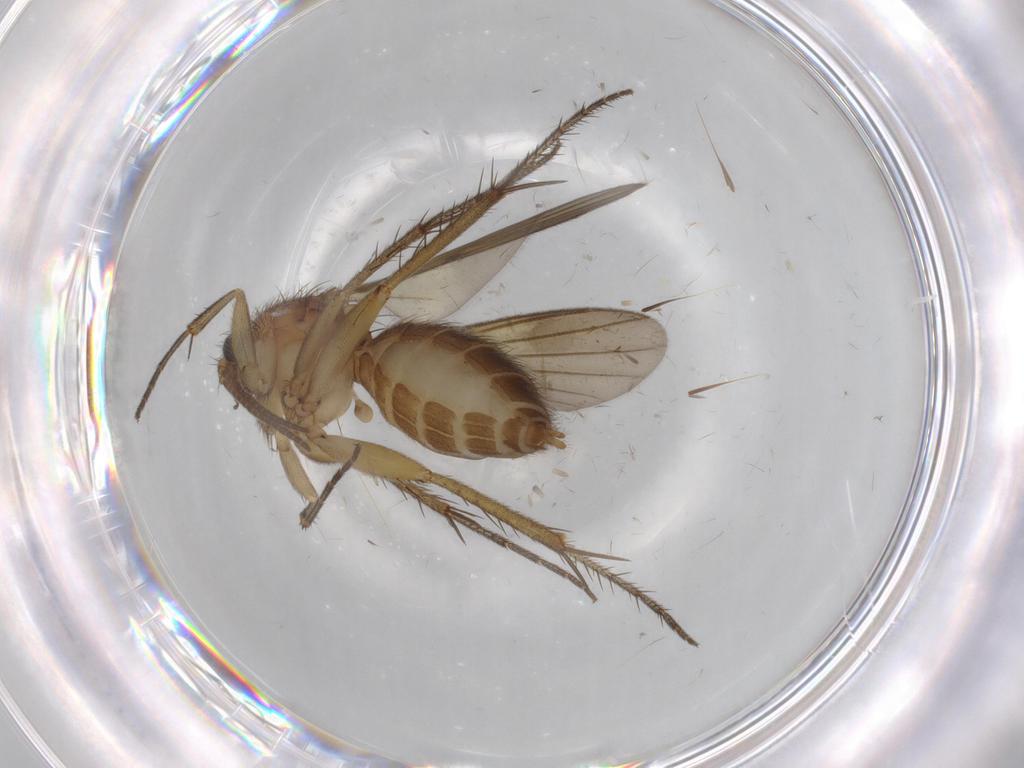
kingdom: Animalia
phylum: Arthropoda
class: Insecta
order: Diptera
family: Mycetophilidae
